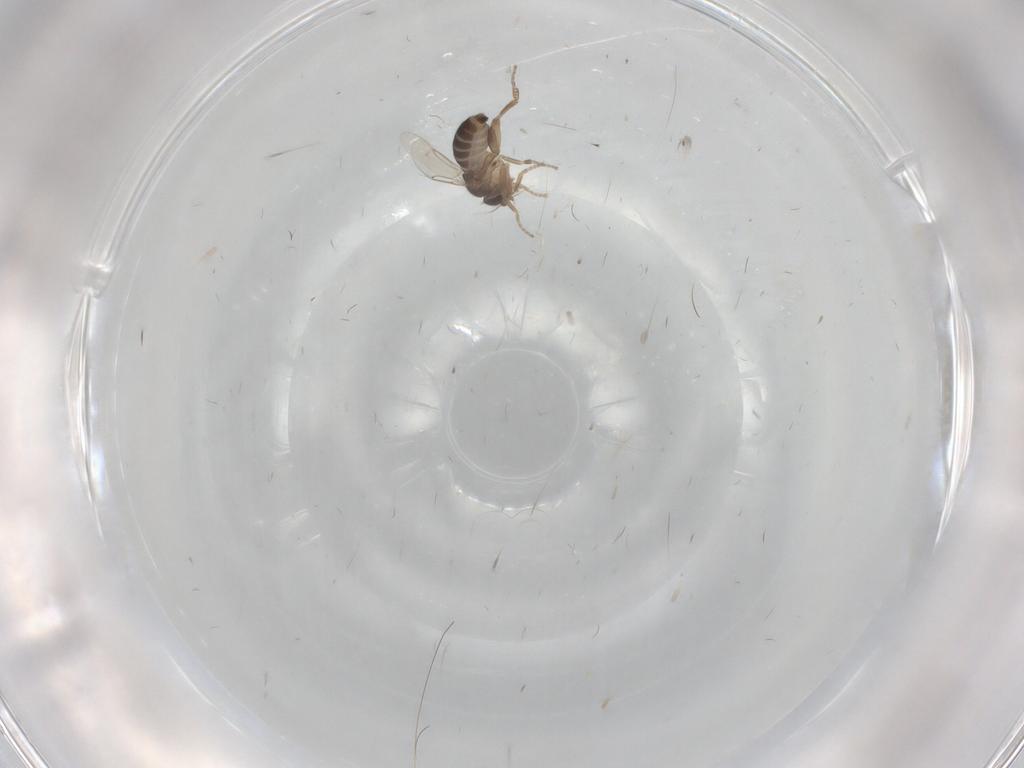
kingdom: Animalia
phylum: Arthropoda
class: Insecta
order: Diptera
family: Phoridae
